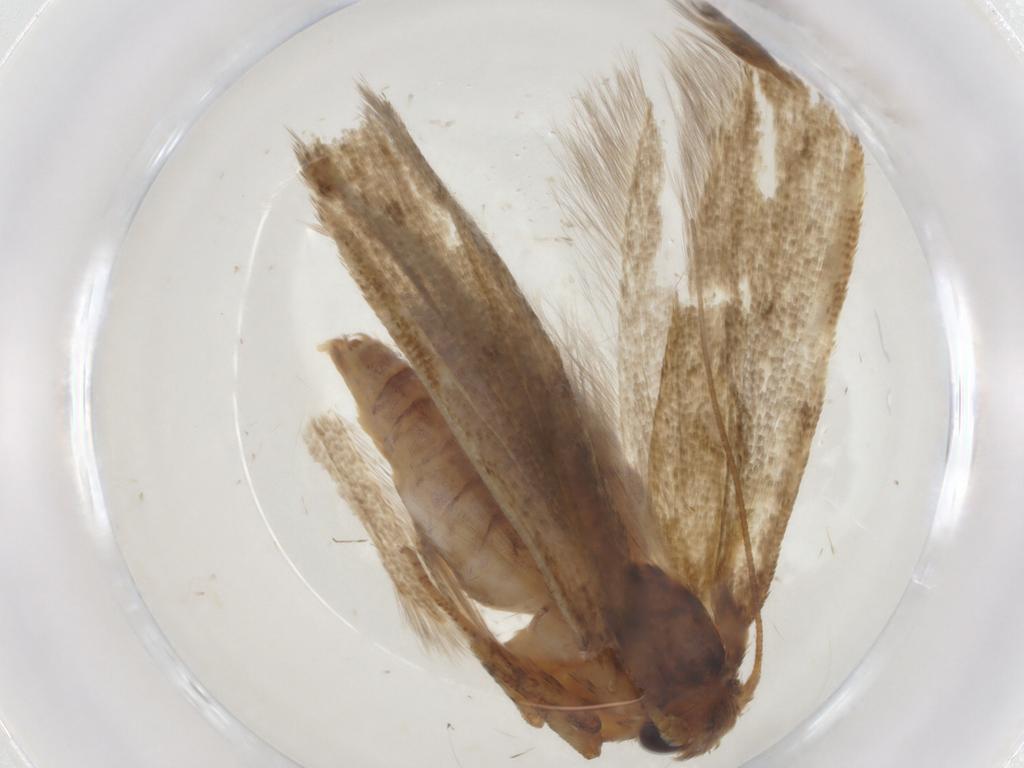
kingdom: Animalia
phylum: Arthropoda
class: Insecta
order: Lepidoptera
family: Blastobasidae
